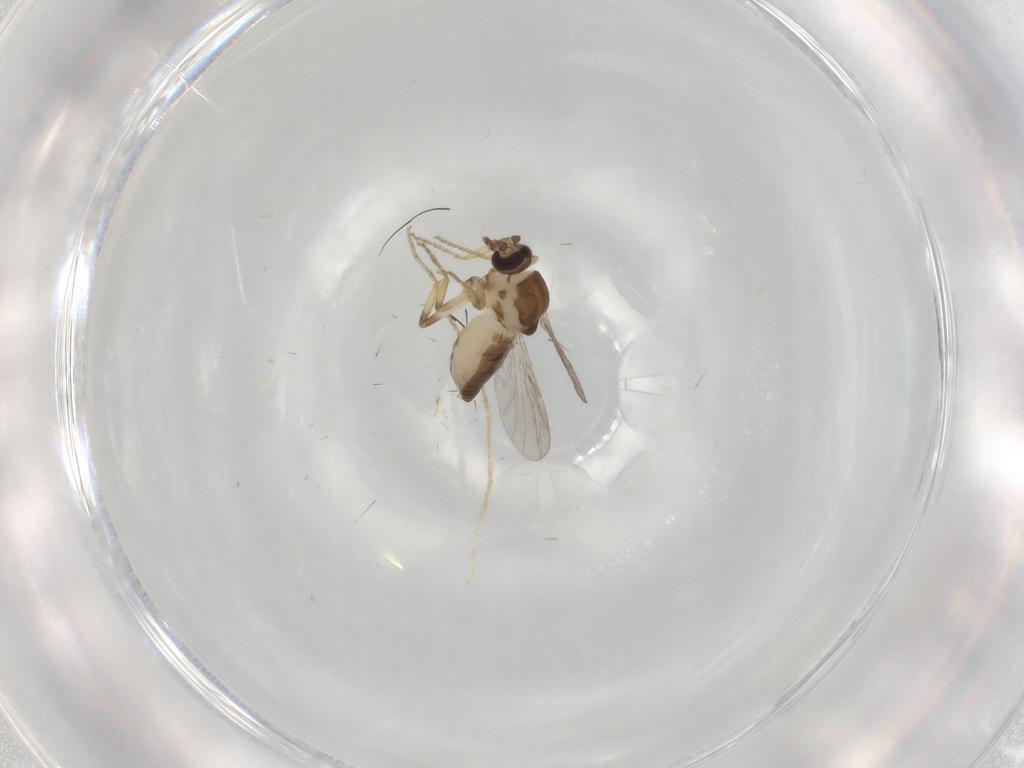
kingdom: Animalia
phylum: Arthropoda
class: Insecta
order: Diptera
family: Ceratopogonidae
